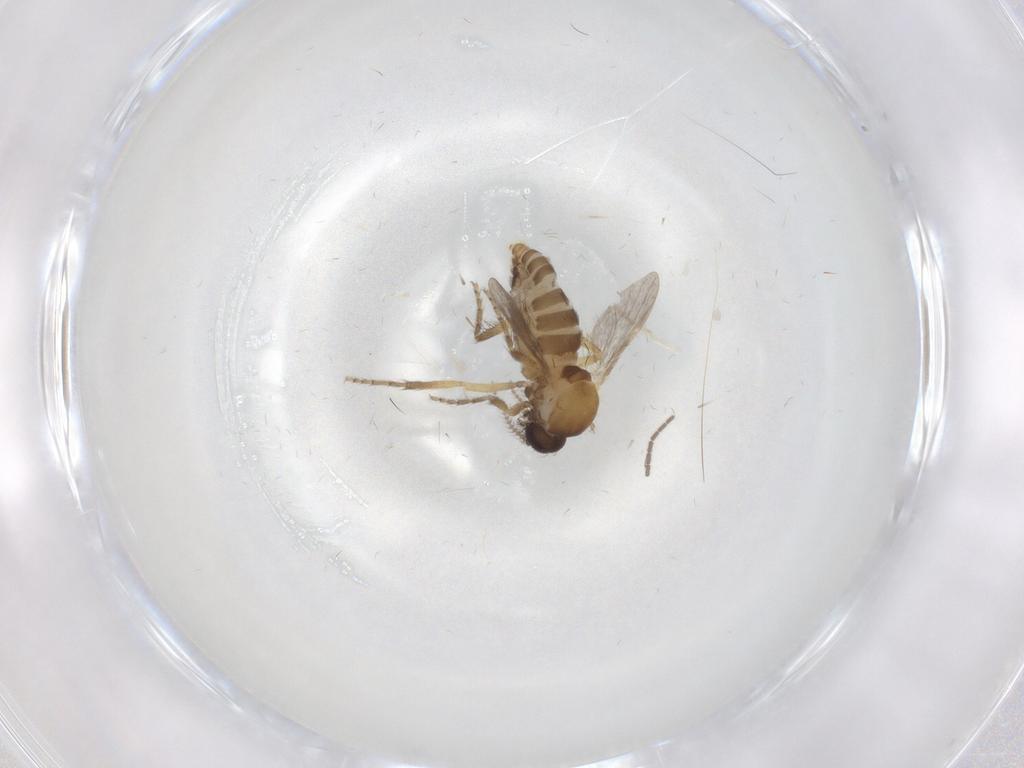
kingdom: Animalia
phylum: Arthropoda
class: Insecta
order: Diptera
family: Ceratopogonidae
